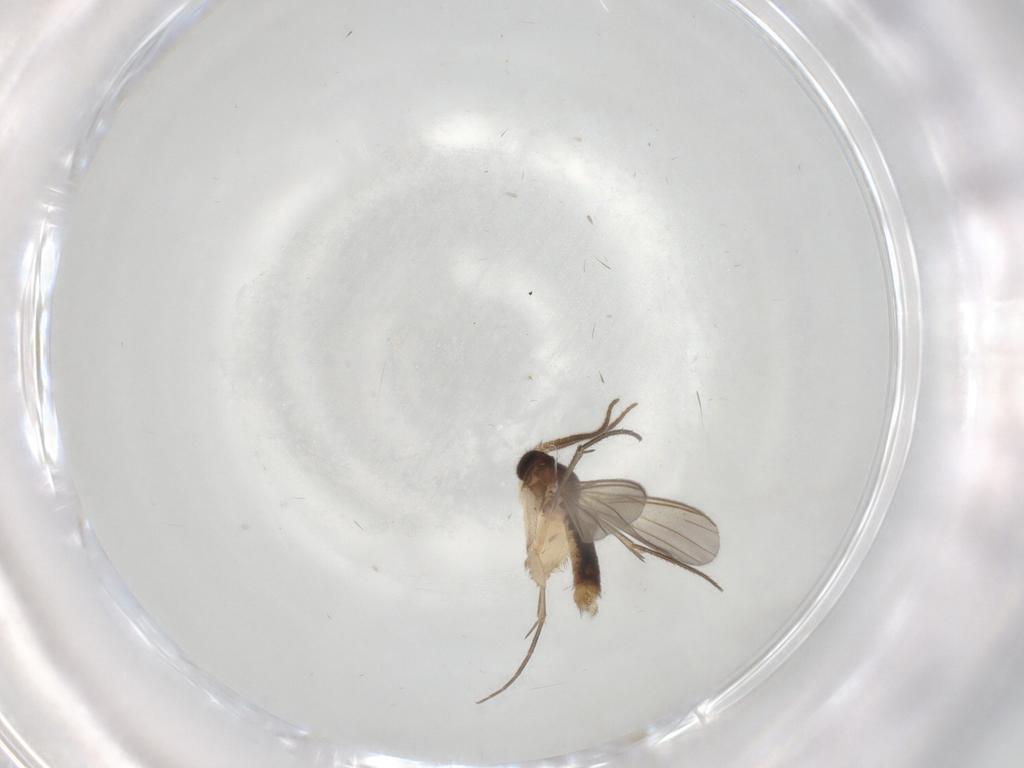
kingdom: Animalia
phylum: Arthropoda
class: Insecta
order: Diptera
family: Mycetophilidae
